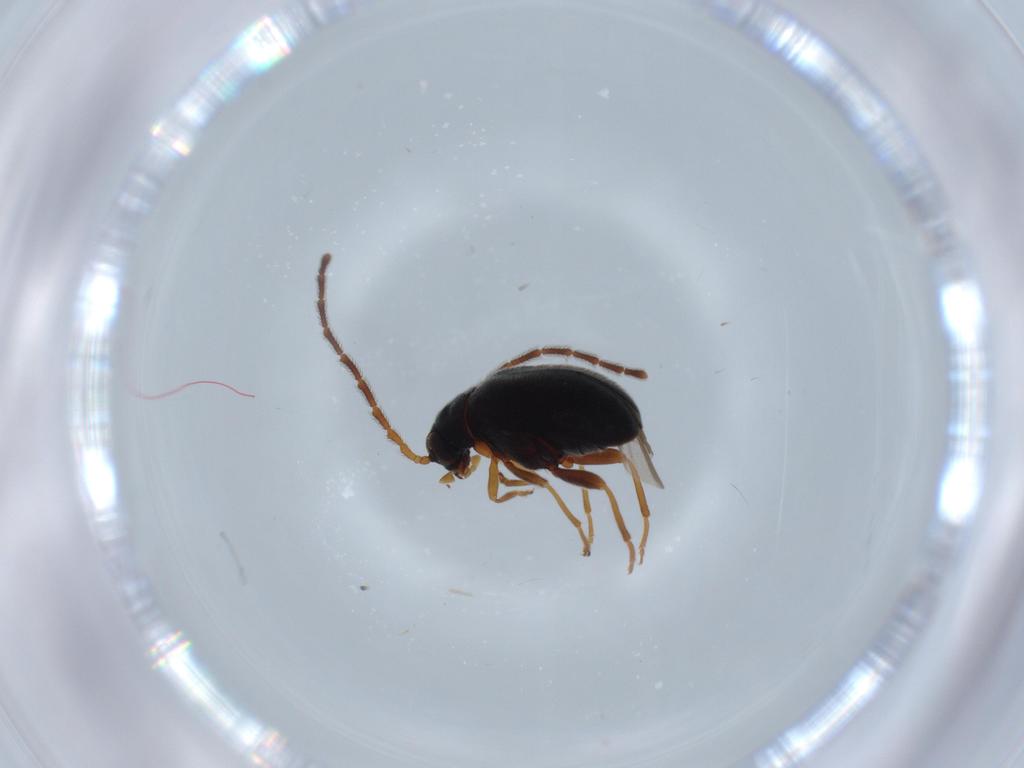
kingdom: Animalia
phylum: Arthropoda
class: Insecta
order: Coleoptera
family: Chrysomelidae
